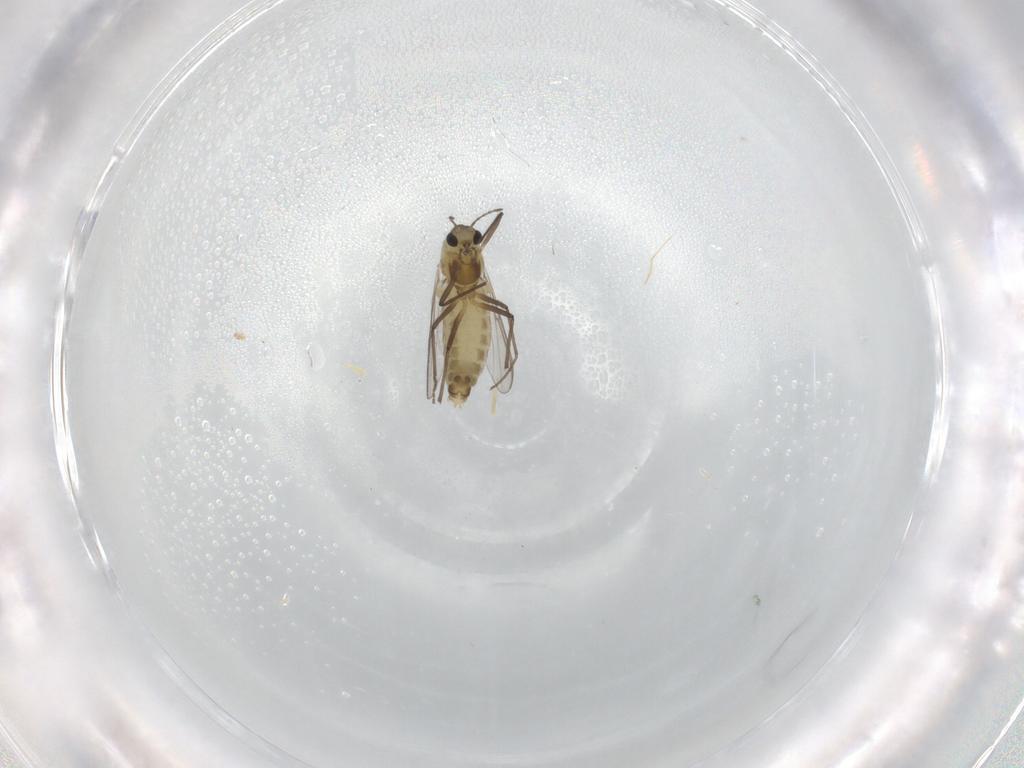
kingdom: Animalia
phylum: Arthropoda
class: Insecta
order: Diptera
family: Chironomidae
